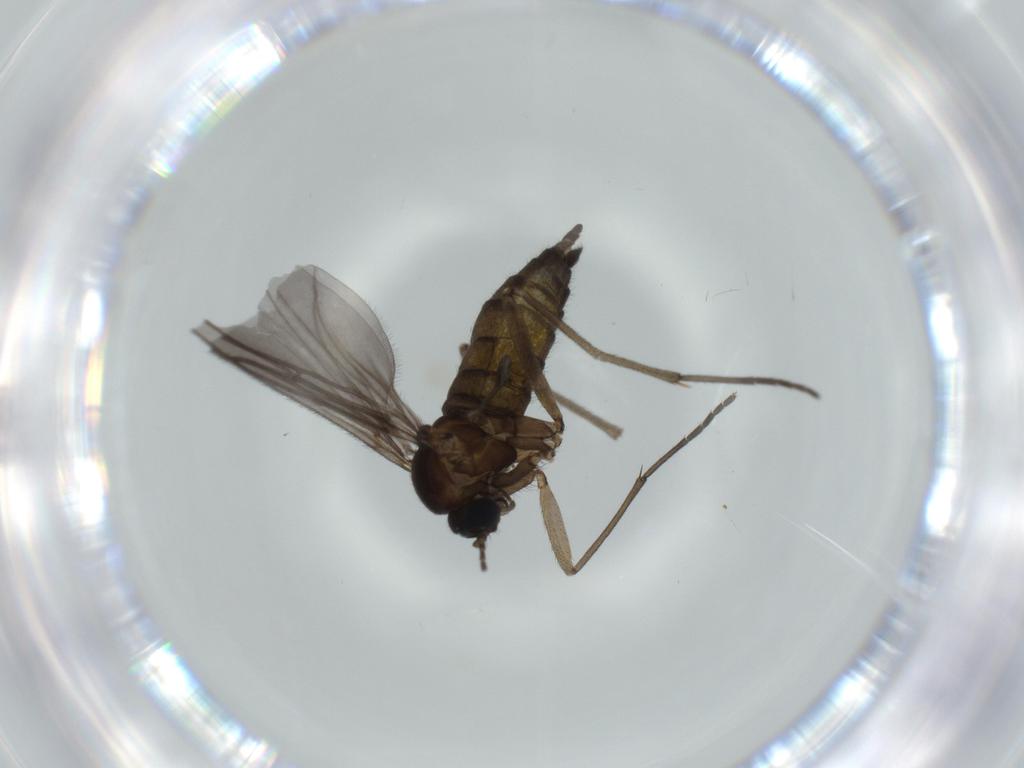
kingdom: Animalia
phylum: Arthropoda
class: Insecta
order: Diptera
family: Sciaridae
